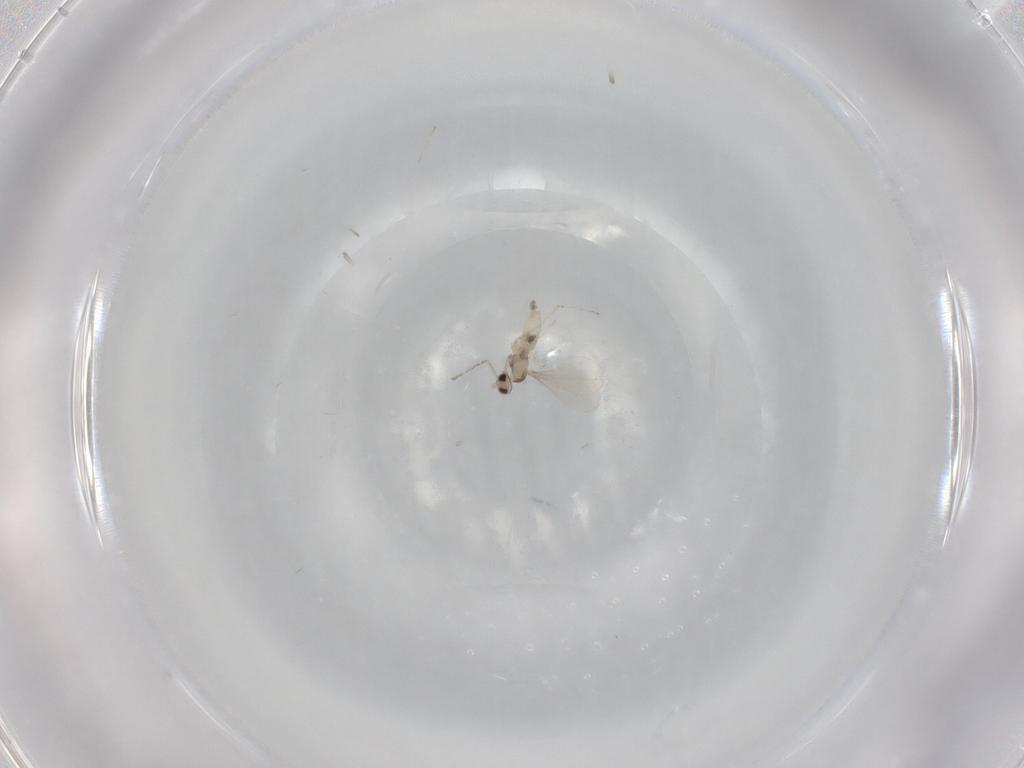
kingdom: Animalia
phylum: Arthropoda
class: Insecta
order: Diptera
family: Cecidomyiidae
